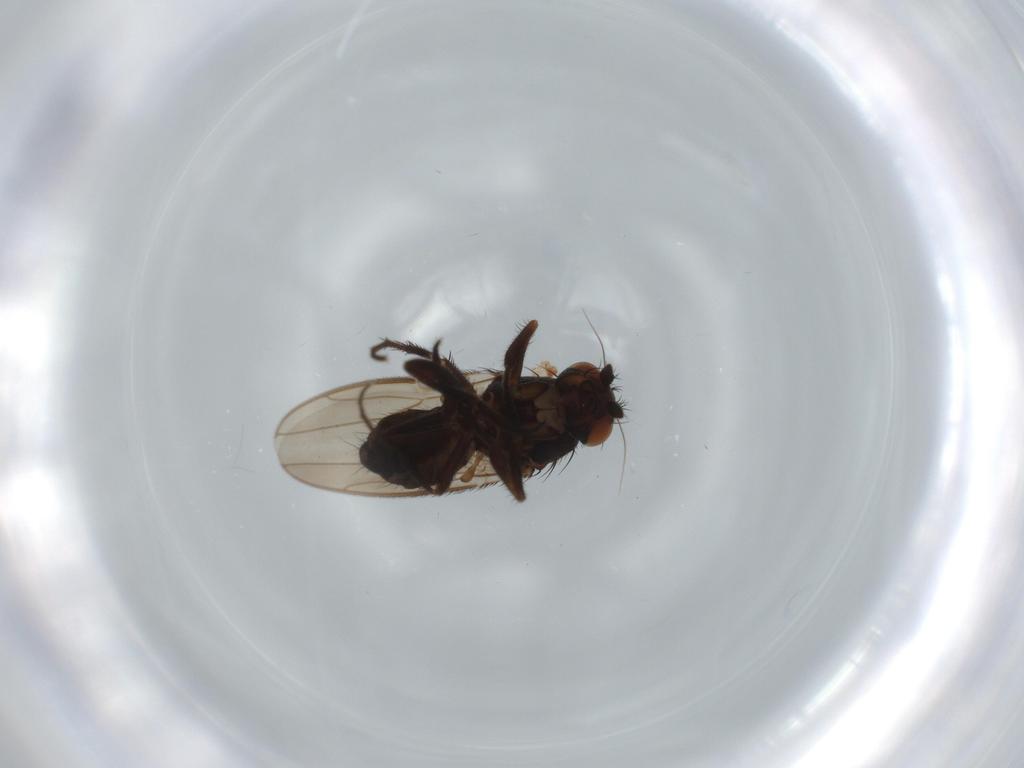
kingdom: Animalia
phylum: Arthropoda
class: Insecta
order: Diptera
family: Sphaeroceridae
